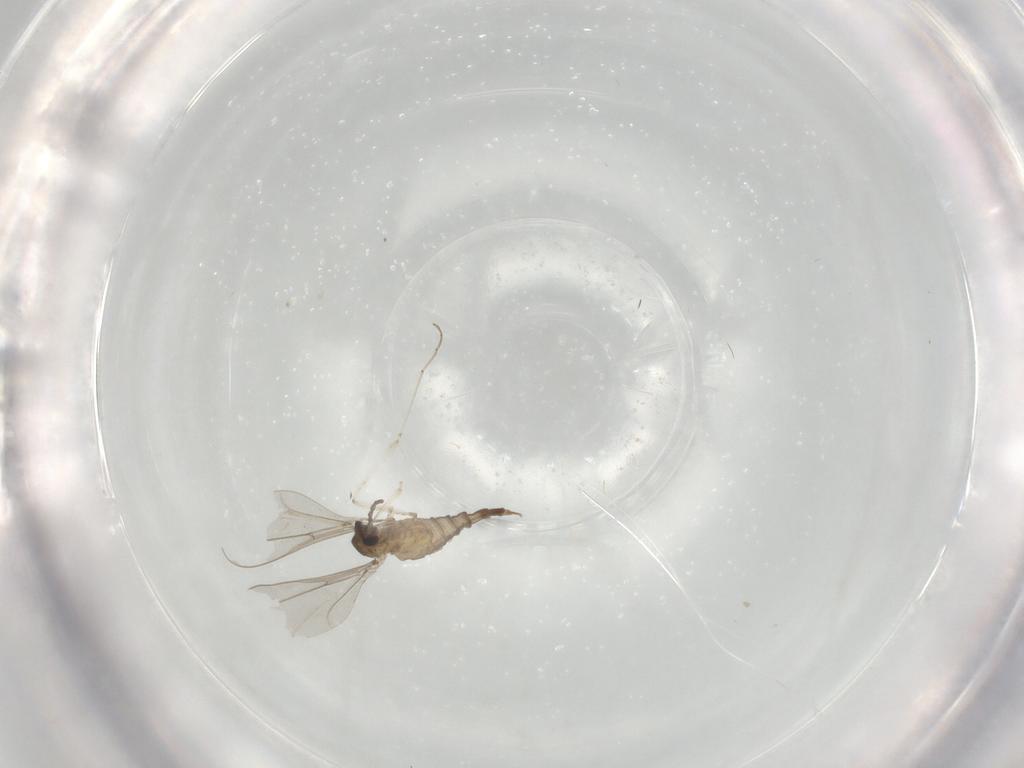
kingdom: Animalia
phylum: Arthropoda
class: Insecta
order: Diptera
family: Cecidomyiidae
